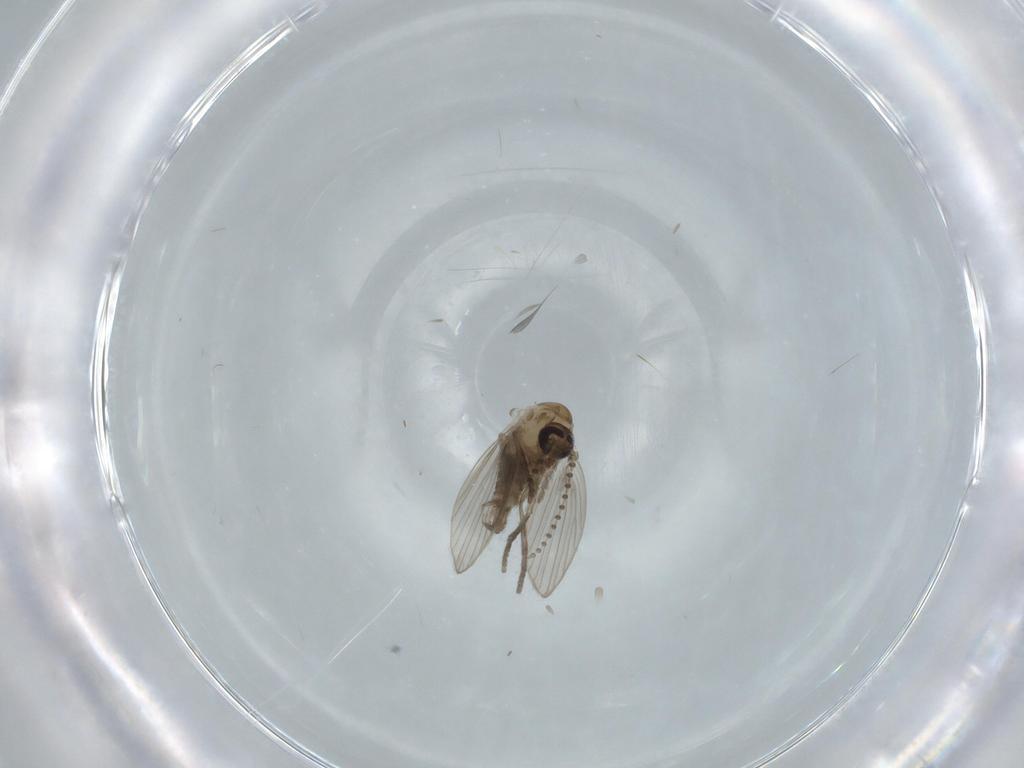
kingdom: Animalia
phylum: Arthropoda
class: Insecta
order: Diptera
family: Psychodidae
